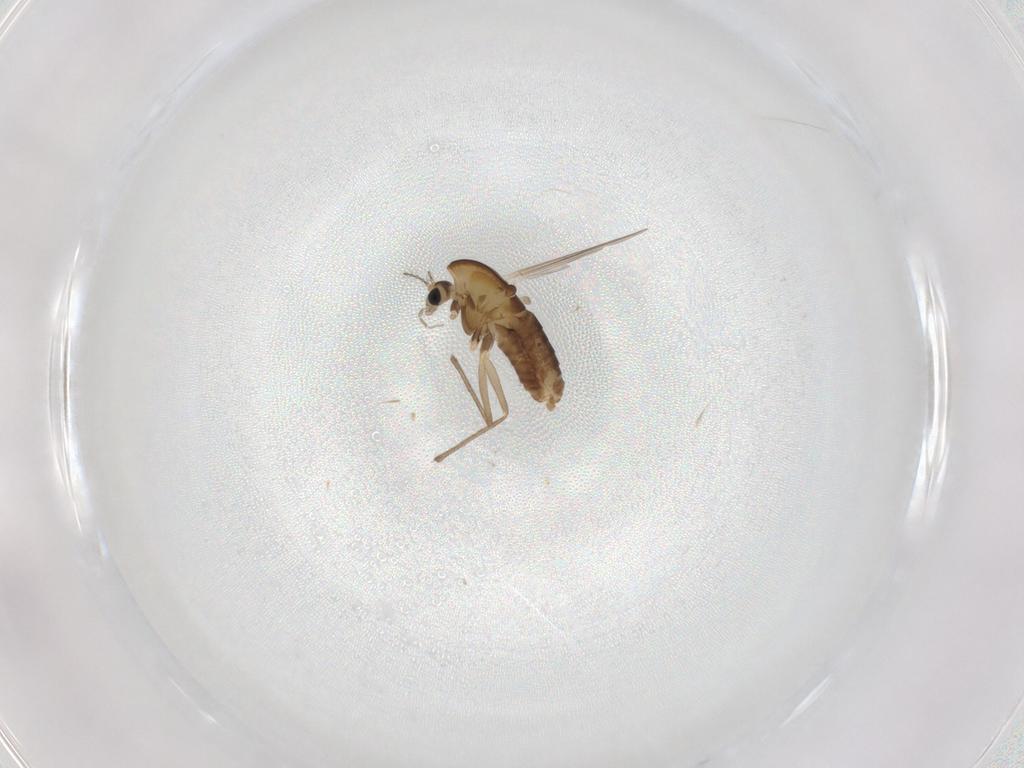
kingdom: Animalia
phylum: Arthropoda
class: Insecta
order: Diptera
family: Chironomidae
